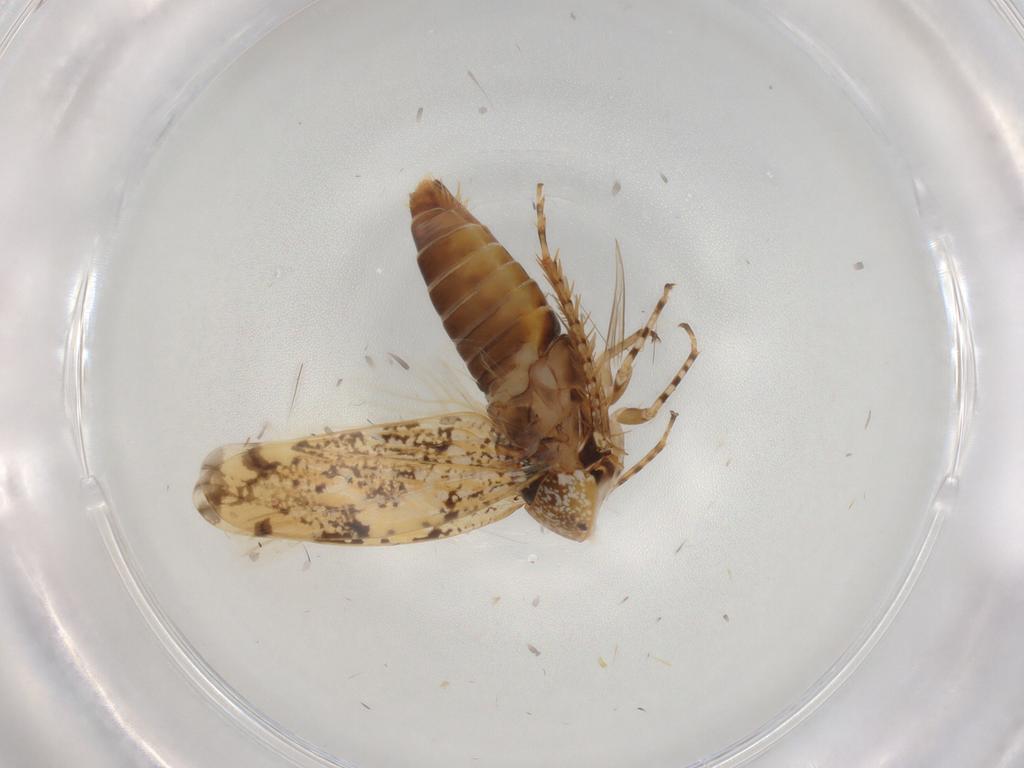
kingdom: Animalia
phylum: Arthropoda
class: Insecta
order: Hemiptera
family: Cicadellidae
